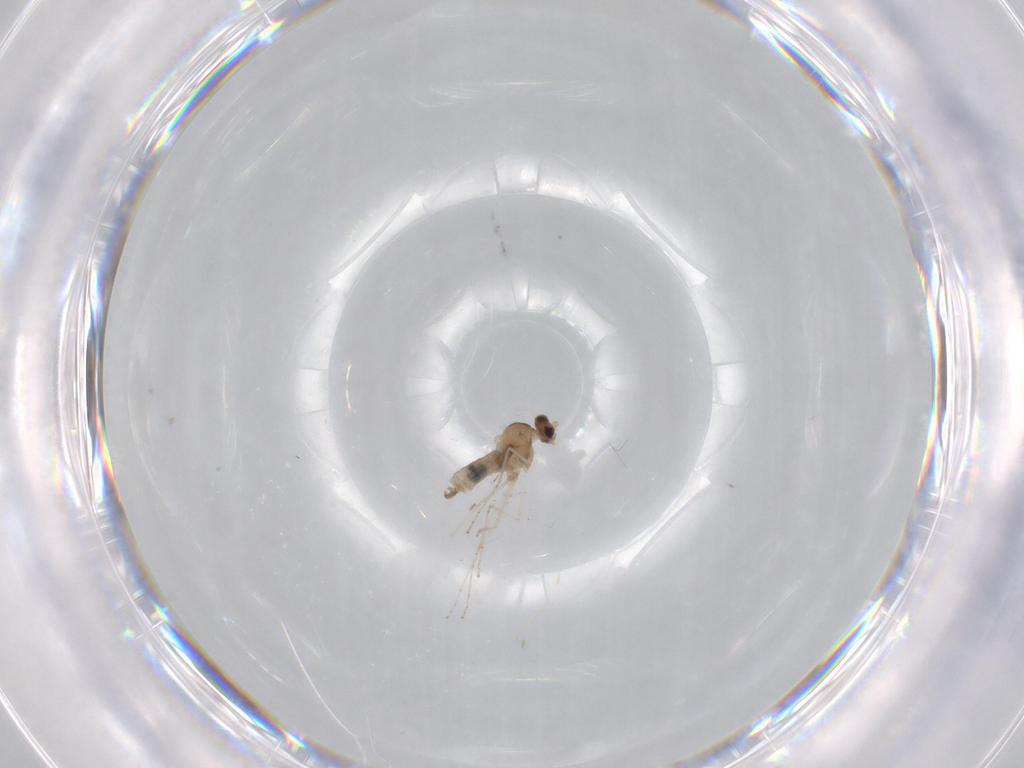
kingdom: Animalia
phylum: Arthropoda
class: Insecta
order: Diptera
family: Cecidomyiidae
